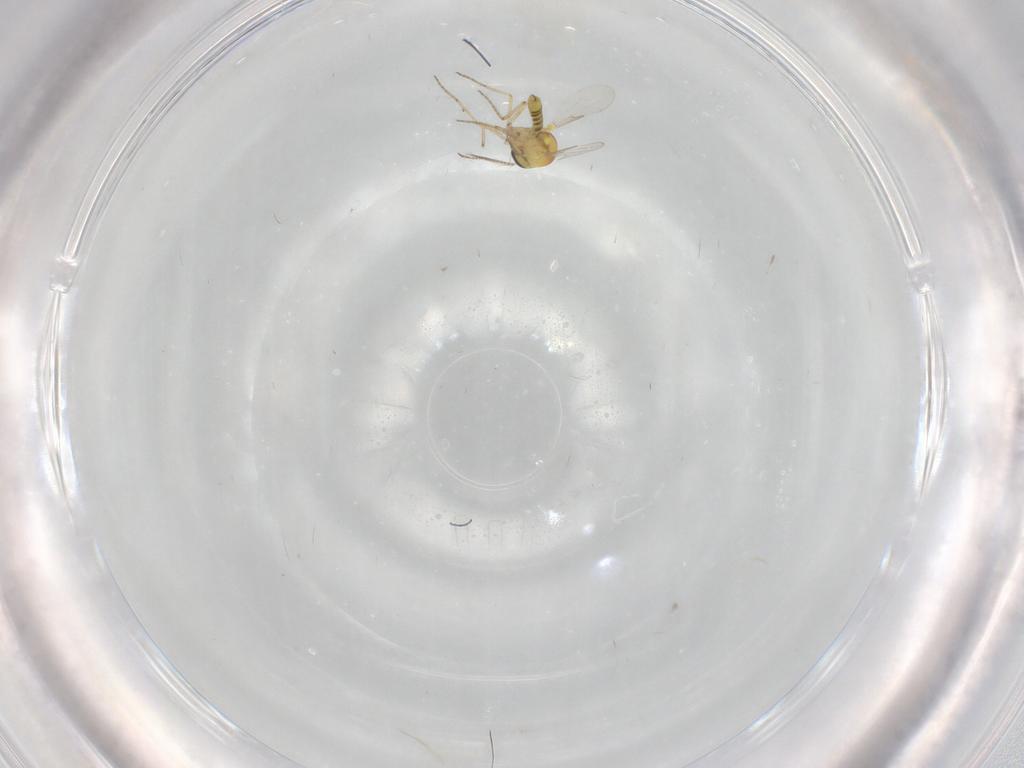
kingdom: Animalia
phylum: Arthropoda
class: Insecta
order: Diptera
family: Ceratopogonidae
